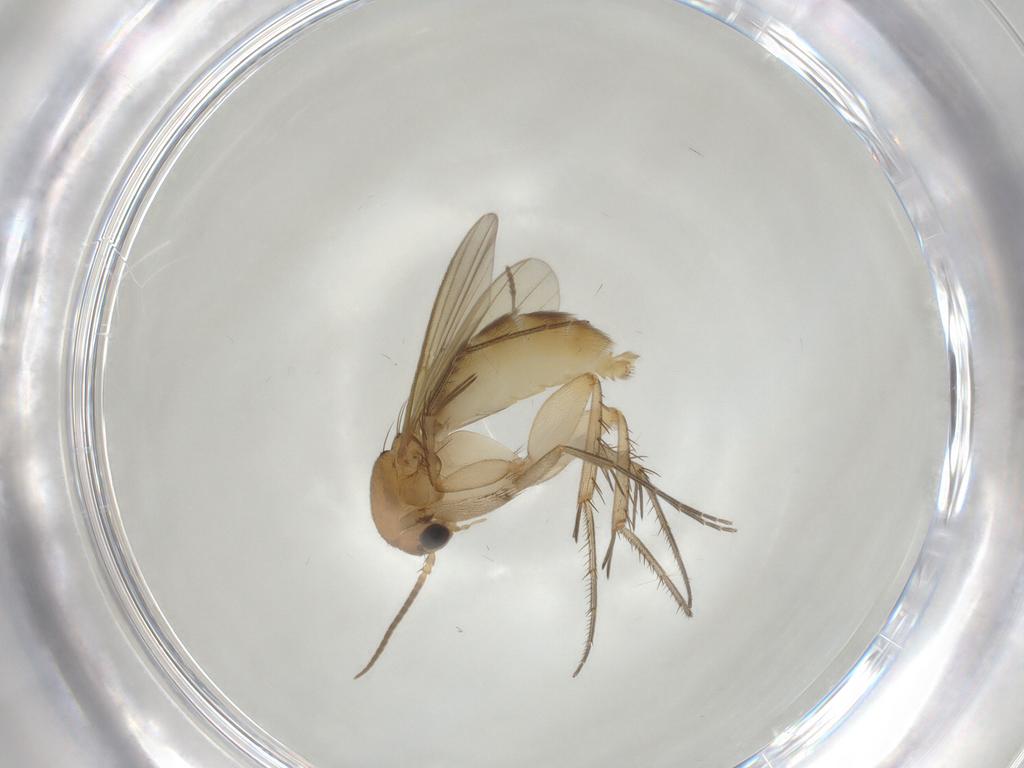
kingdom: Animalia
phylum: Arthropoda
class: Insecta
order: Diptera
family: Mycetophilidae
